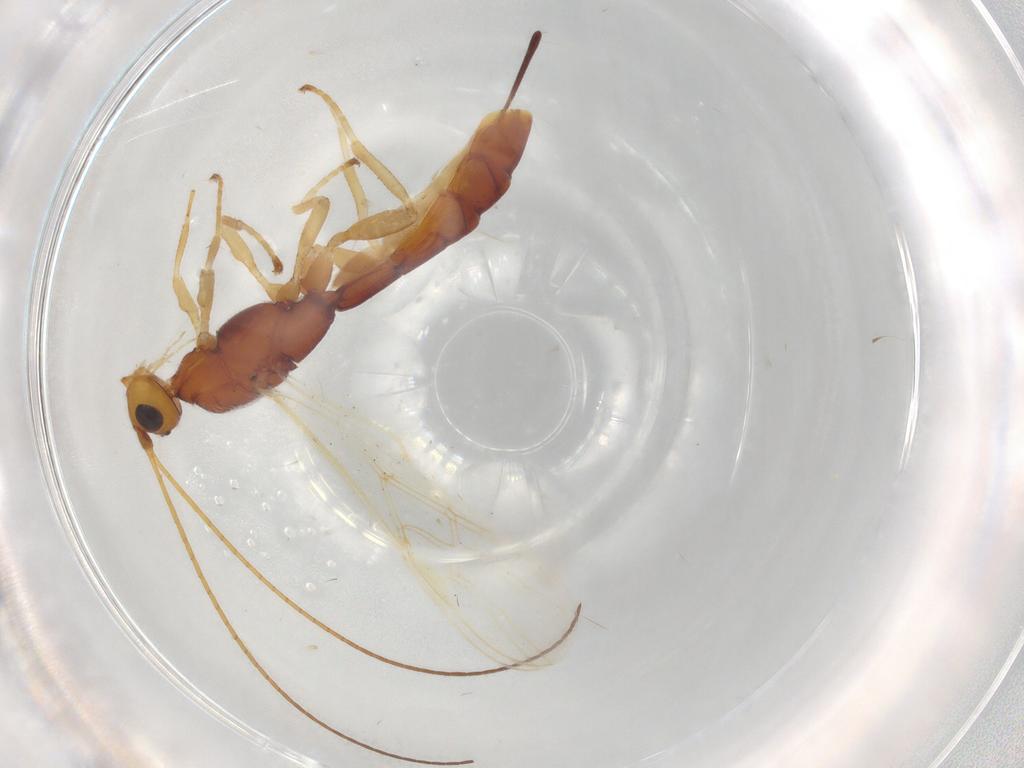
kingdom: Animalia
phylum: Arthropoda
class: Insecta
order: Hymenoptera
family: Braconidae
